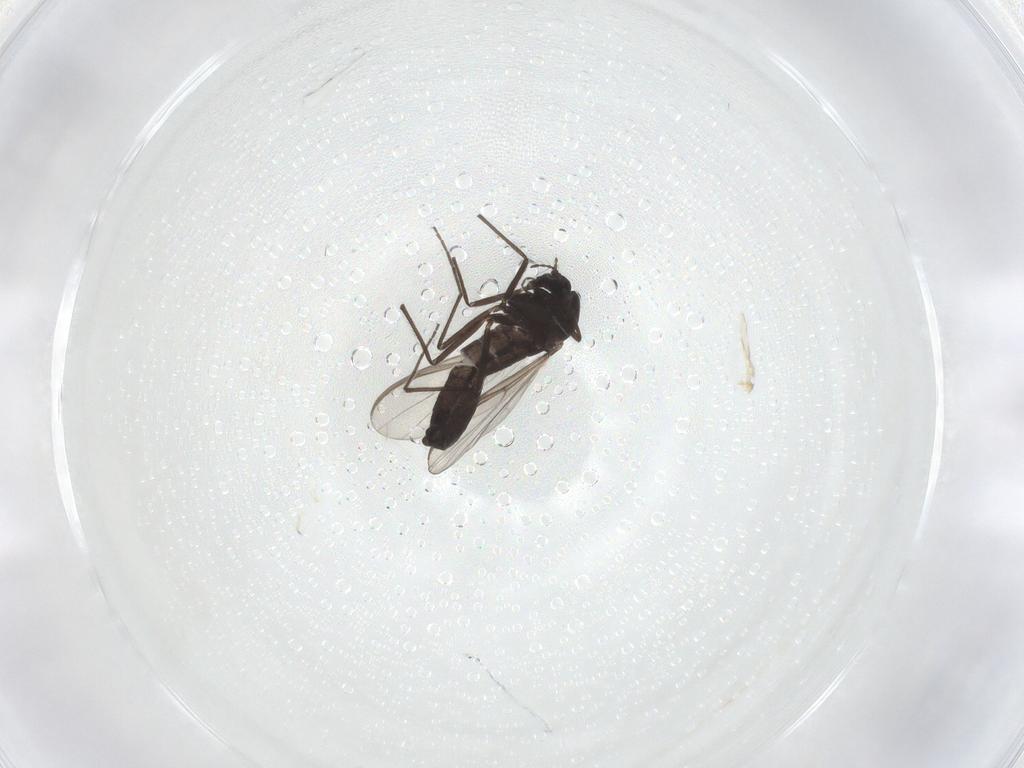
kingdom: Animalia
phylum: Arthropoda
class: Insecta
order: Diptera
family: Chironomidae
